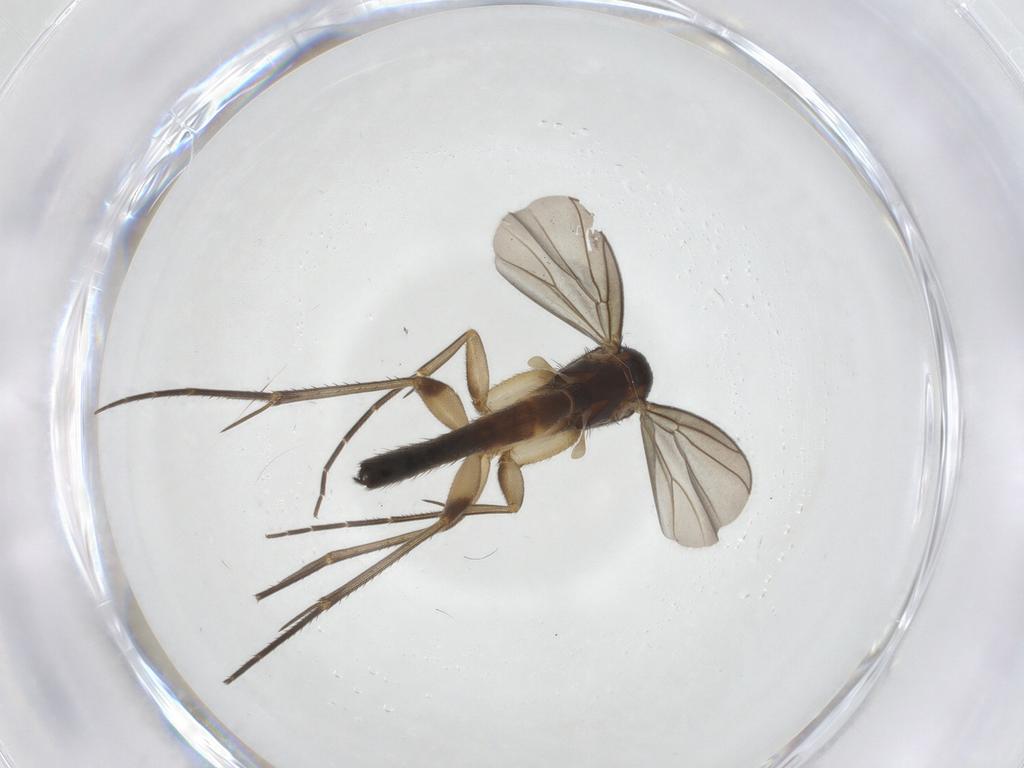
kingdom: Animalia
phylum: Arthropoda
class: Insecta
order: Diptera
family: Mycetophilidae
